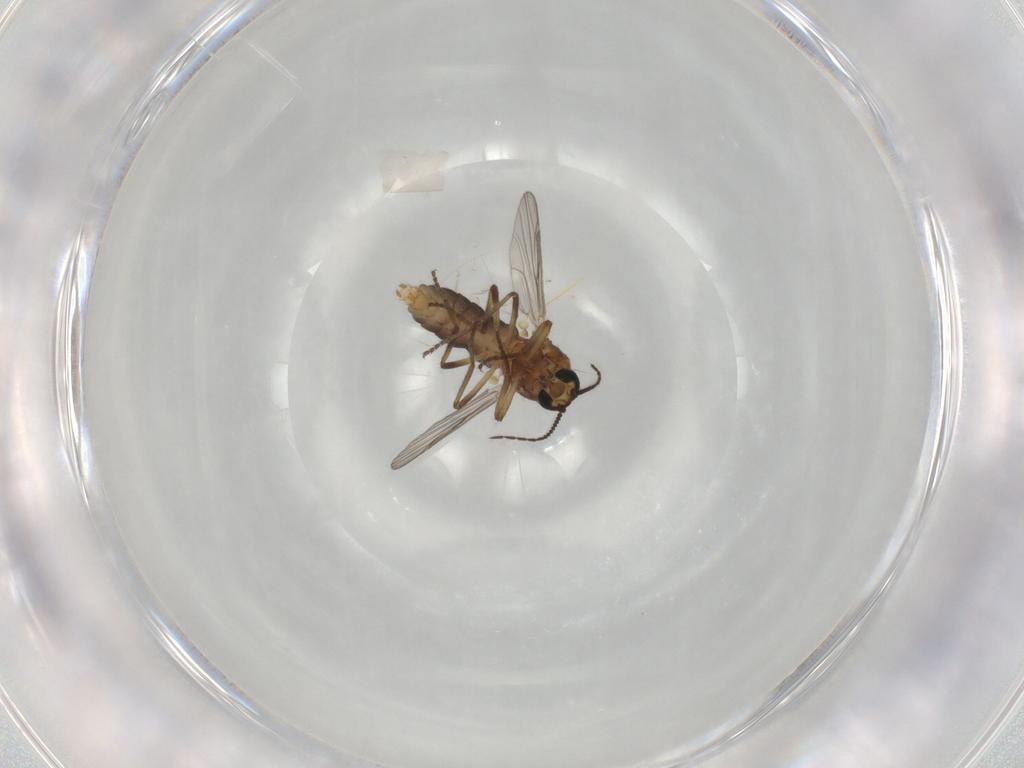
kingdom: Animalia
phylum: Arthropoda
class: Insecta
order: Diptera
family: Ceratopogonidae
